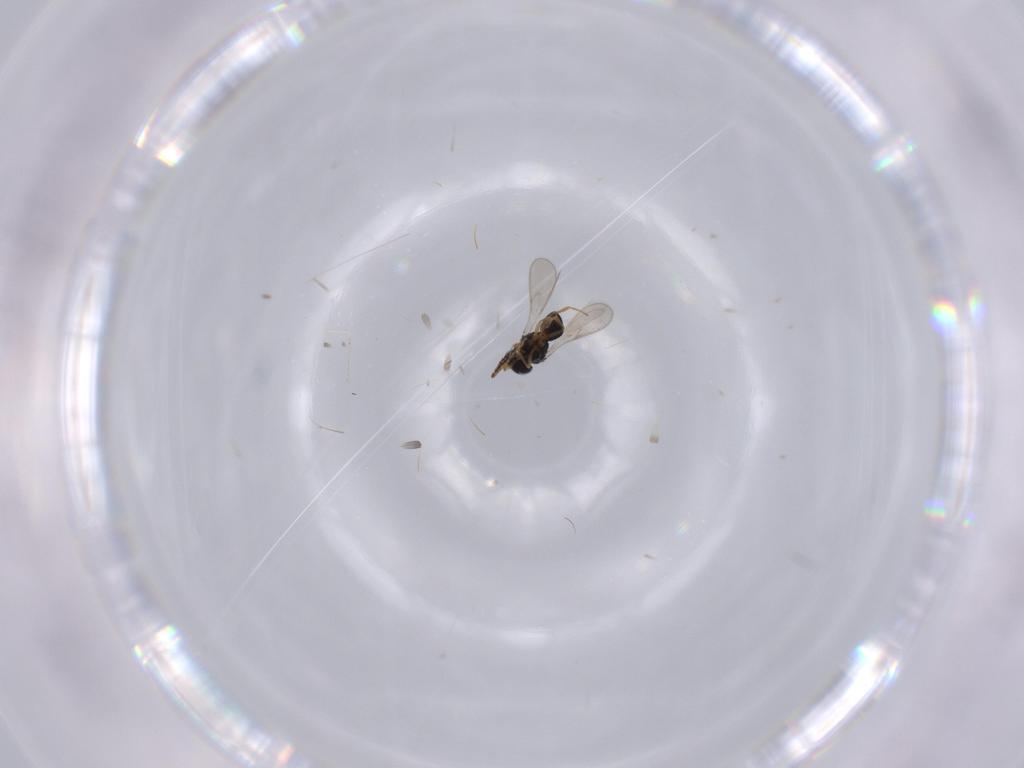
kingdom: Animalia
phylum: Arthropoda
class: Insecta
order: Hymenoptera
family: Scelionidae
